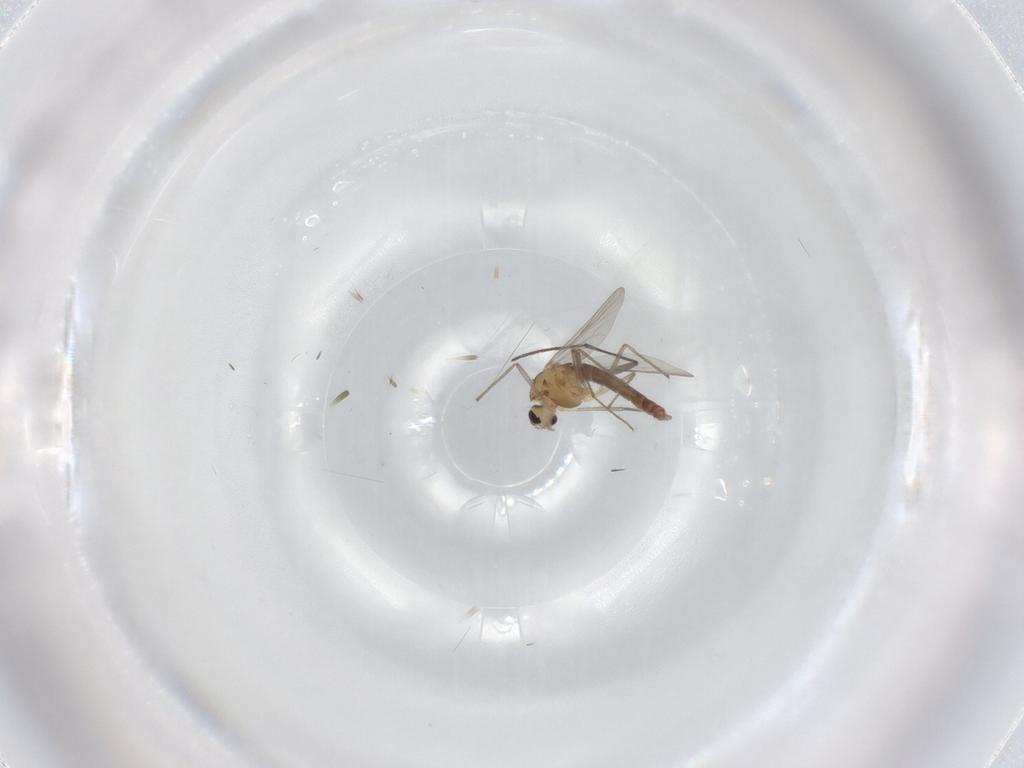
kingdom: Animalia
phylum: Arthropoda
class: Insecta
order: Diptera
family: Chironomidae
